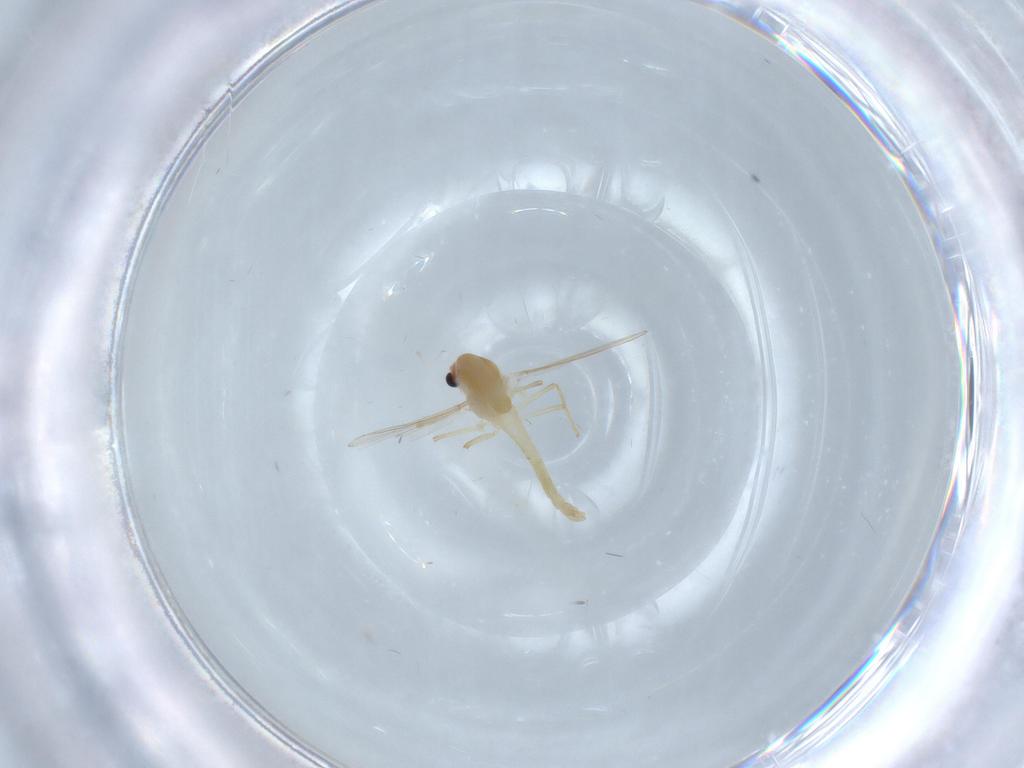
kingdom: Animalia
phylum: Arthropoda
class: Insecta
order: Diptera
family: Chironomidae
